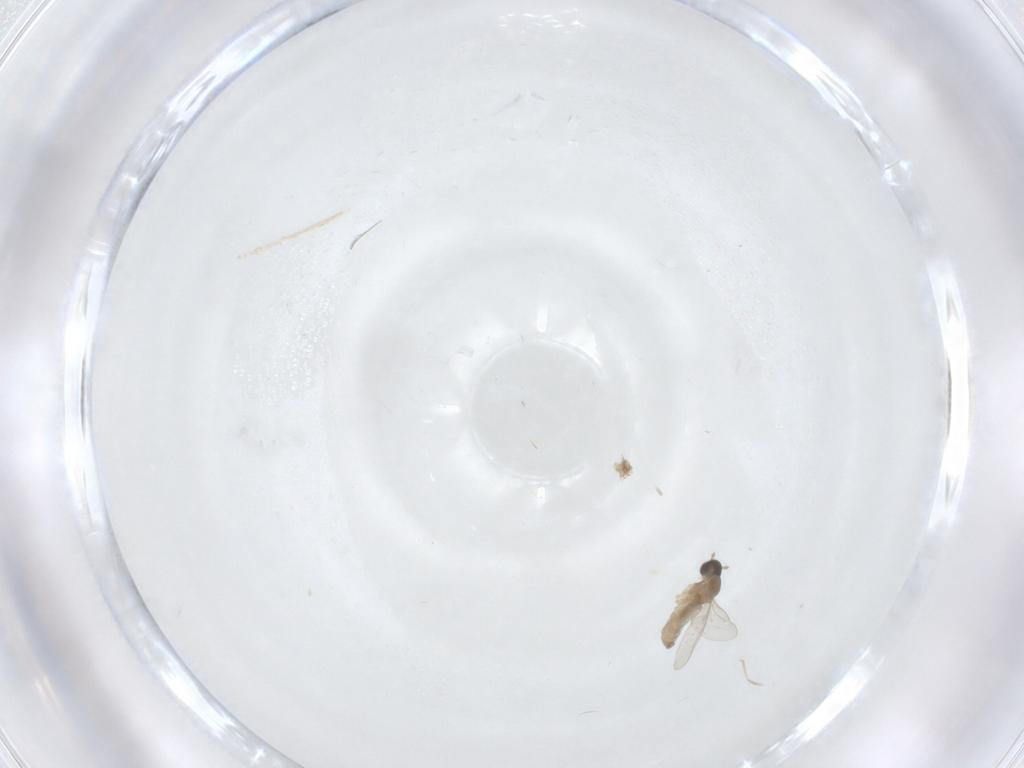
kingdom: Animalia
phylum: Arthropoda
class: Insecta
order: Diptera
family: Cecidomyiidae
